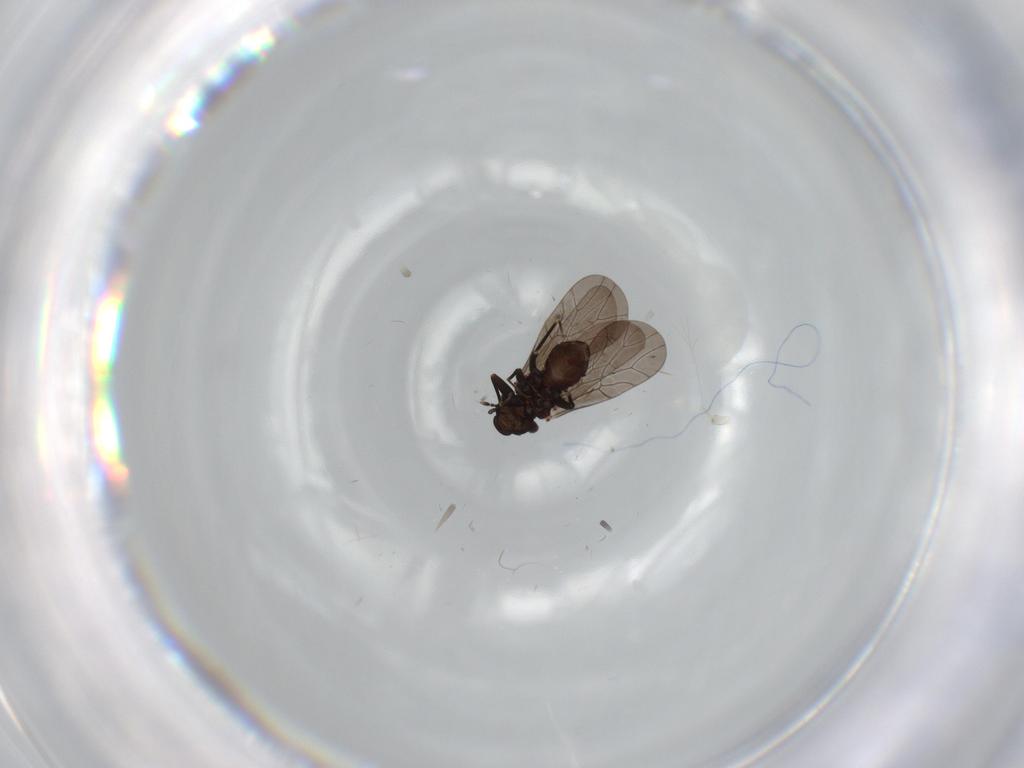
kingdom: Animalia
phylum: Arthropoda
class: Insecta
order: Psocodea
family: Lepidopsocidae
